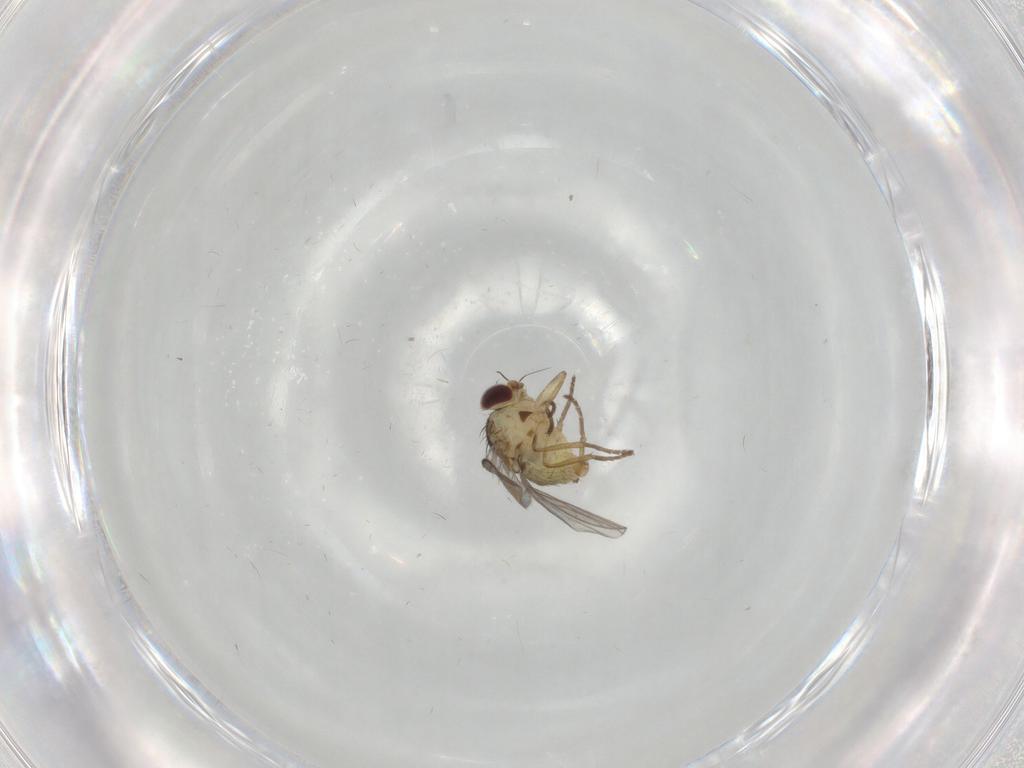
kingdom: Animalia
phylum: Arthropoda
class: Insecta
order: Diptera
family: Agromyzidae
